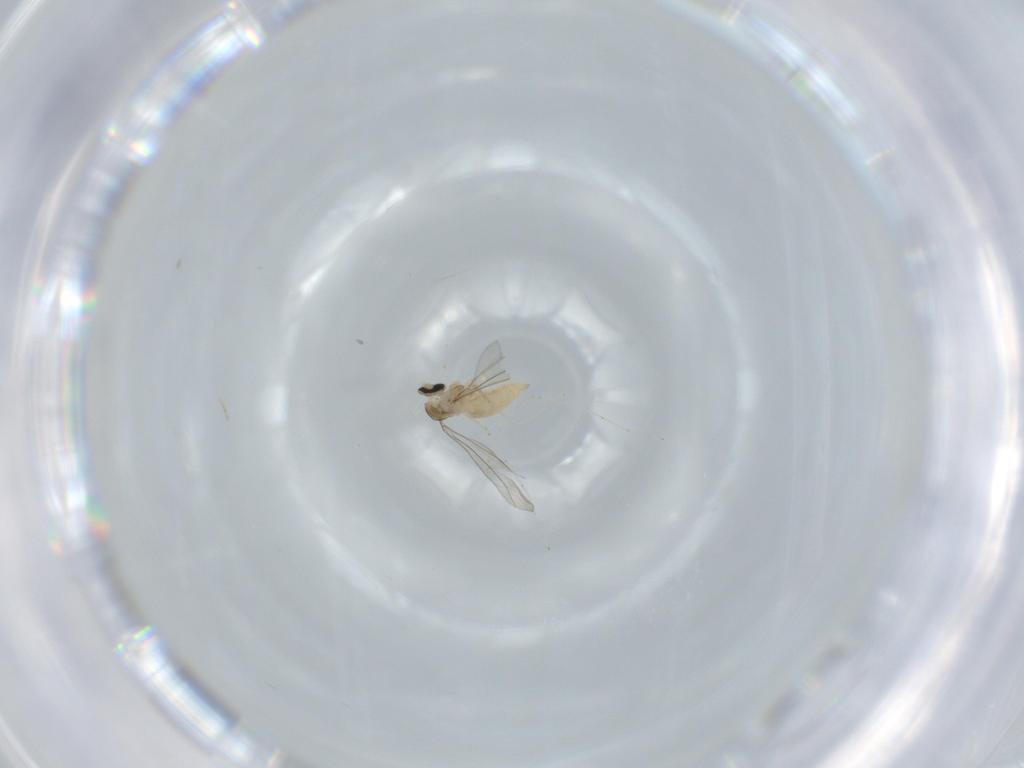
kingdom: Animalia
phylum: Arthropoda
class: Insecta
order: Diptera
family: Cecidomyiidae
